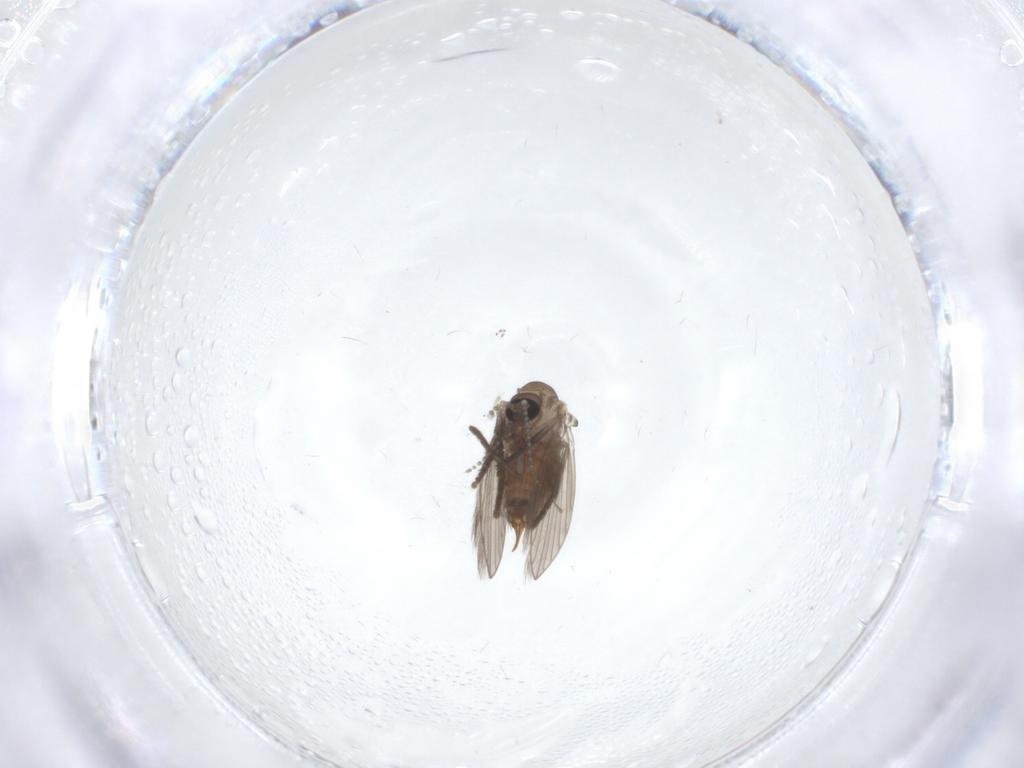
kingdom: Animalia
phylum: Arthropoda
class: Insecta
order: Diptera
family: Psychodidae
